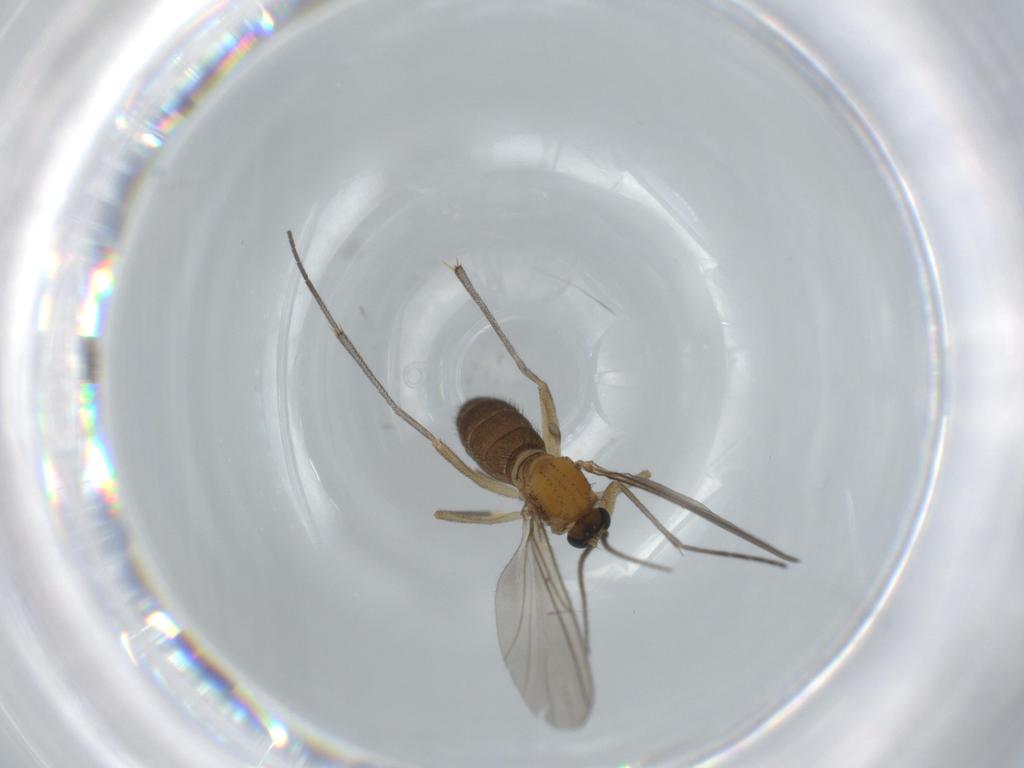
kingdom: Animalia
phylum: Arthropoda
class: Insecta
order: Diptera
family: Sciaridae
